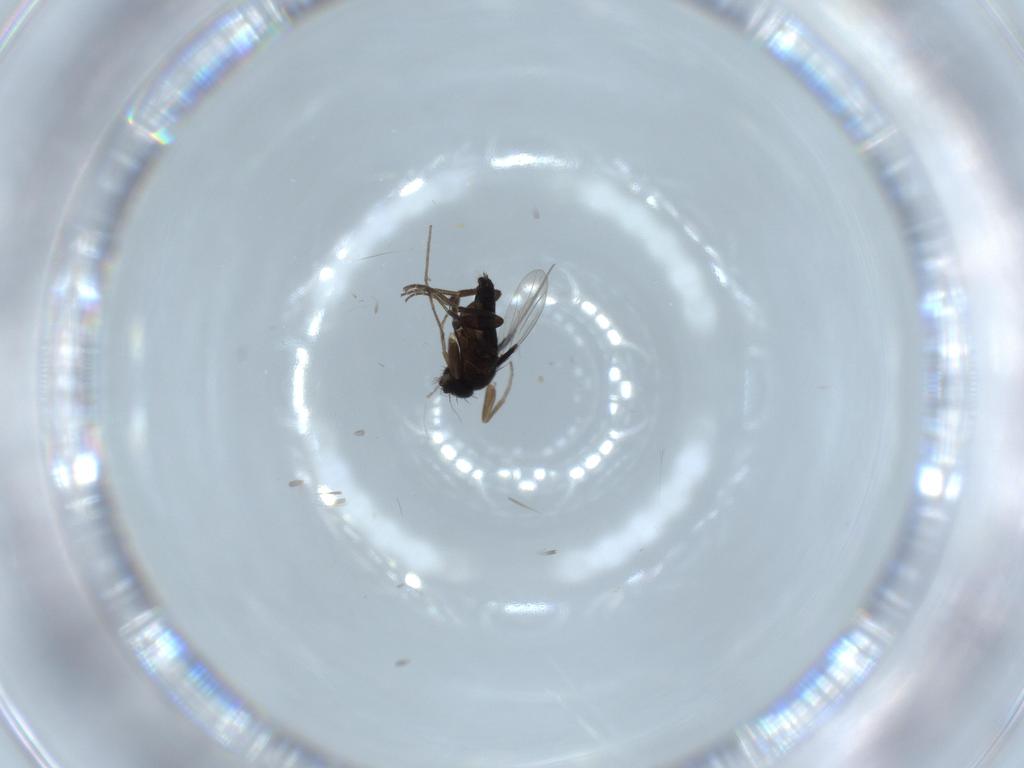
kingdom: Animalia
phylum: Arthropoda
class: Insecta
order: Diptera
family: Phoridae
